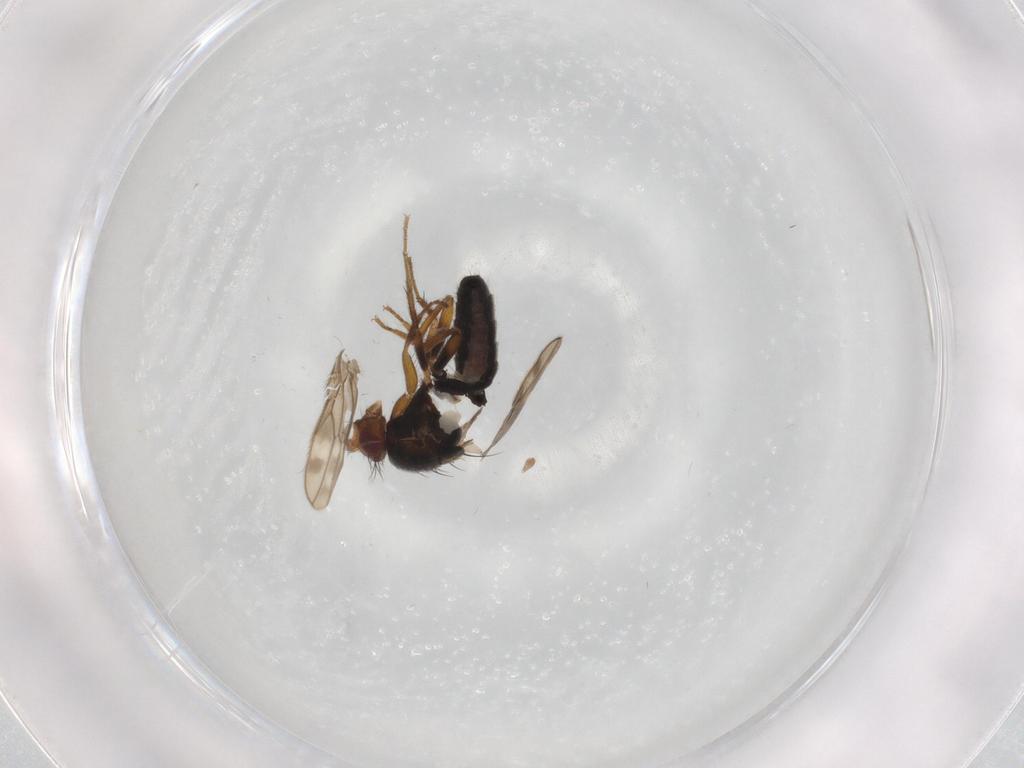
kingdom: Animalia
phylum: Arthropoda
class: Insecta
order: Diptera
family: Sphaeroceridae
